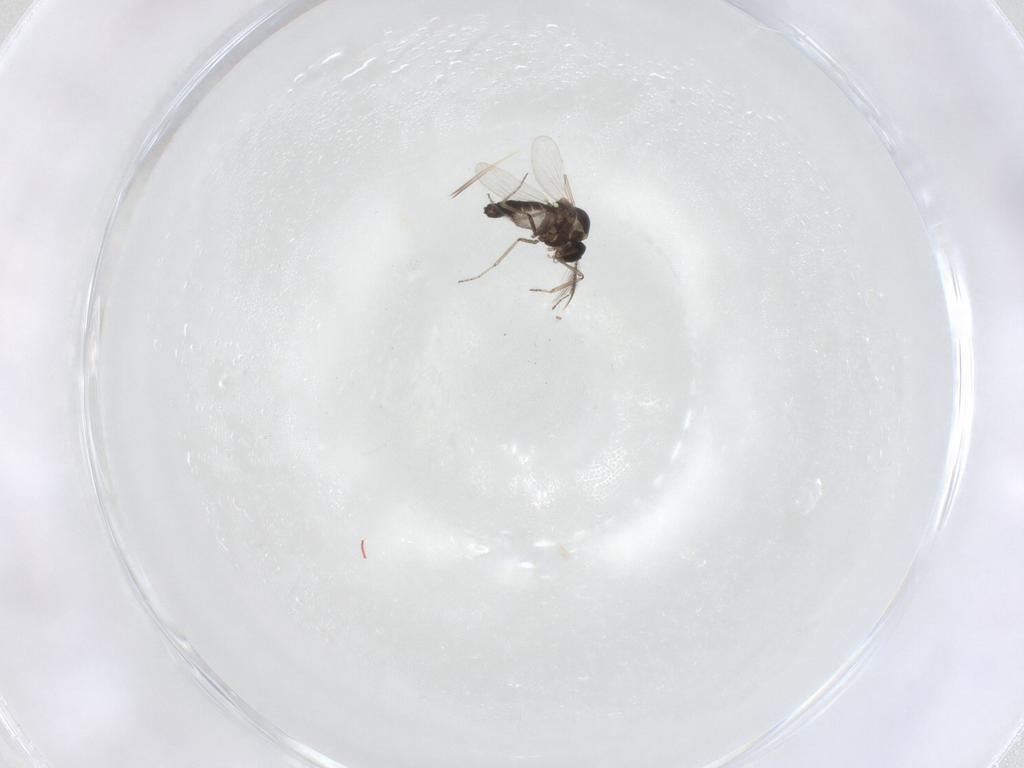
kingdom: Animalia
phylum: Arthropoda
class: Insecta
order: Diptera
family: Ceratopogonidae
